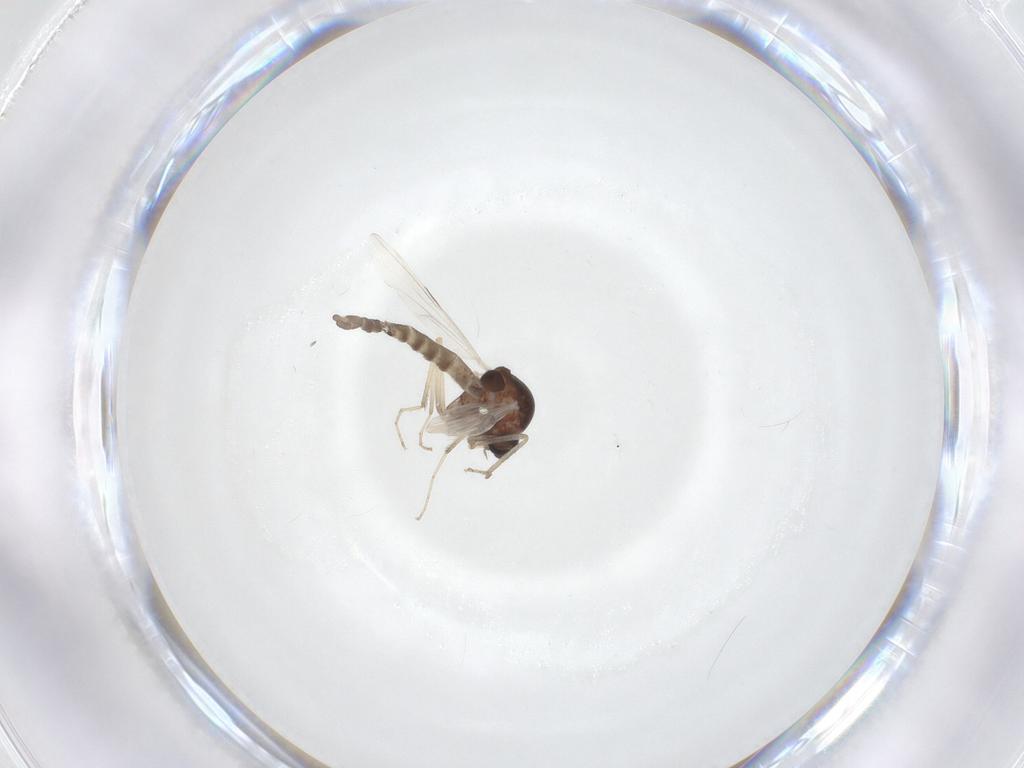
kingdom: Animalia
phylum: Arthropoda
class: Insecta
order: Diptera
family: Ceratopogonidae
